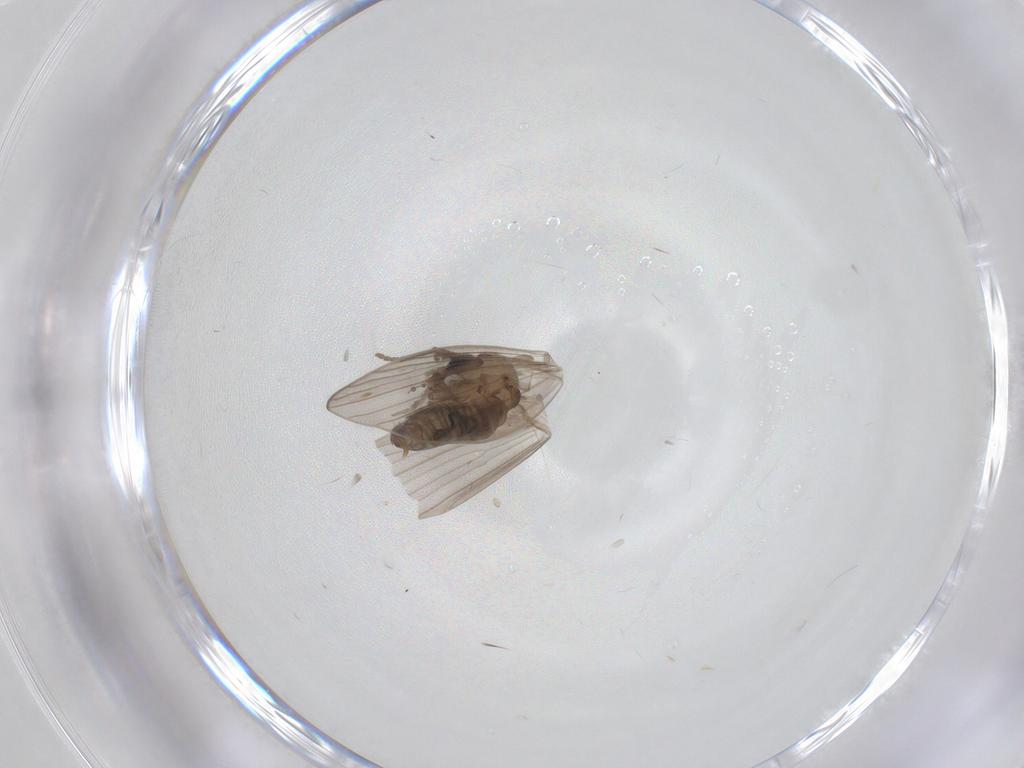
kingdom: Animalia
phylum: Arthropoda
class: Insecta
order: Diptera
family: Psychodidae
